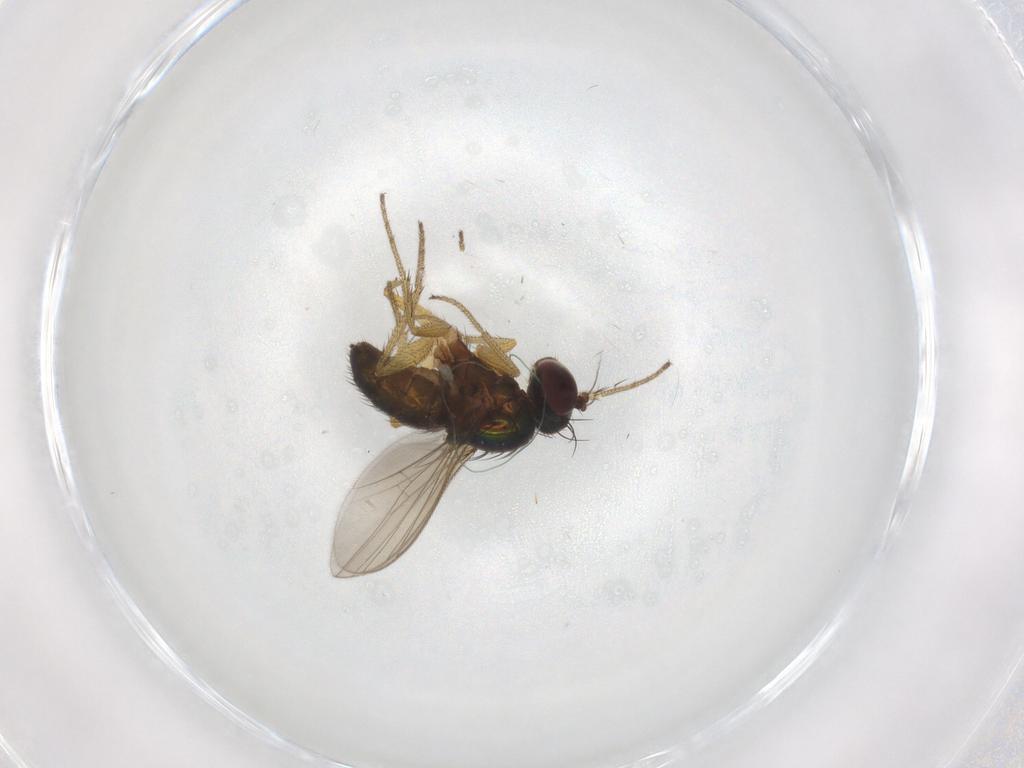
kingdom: Animalia
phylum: Arthropoda
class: Insecta
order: Diptera
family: Dolichopodidae
